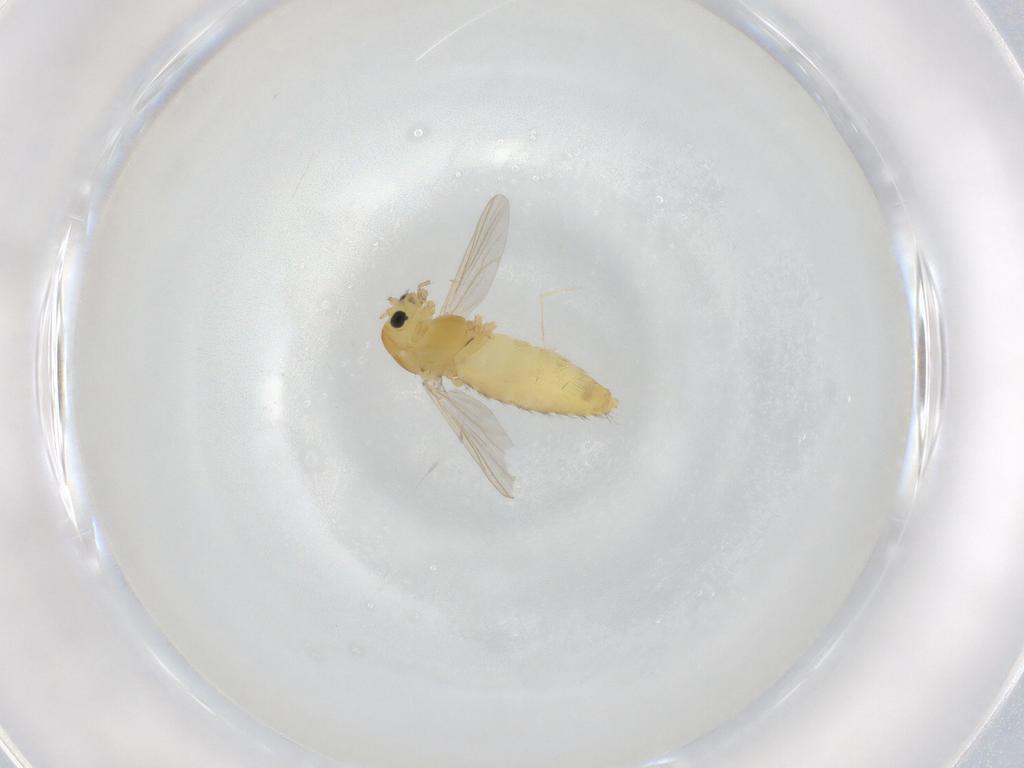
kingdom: Animalia
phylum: Arthropoda
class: Insecta
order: Diptera
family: Chironomidae
